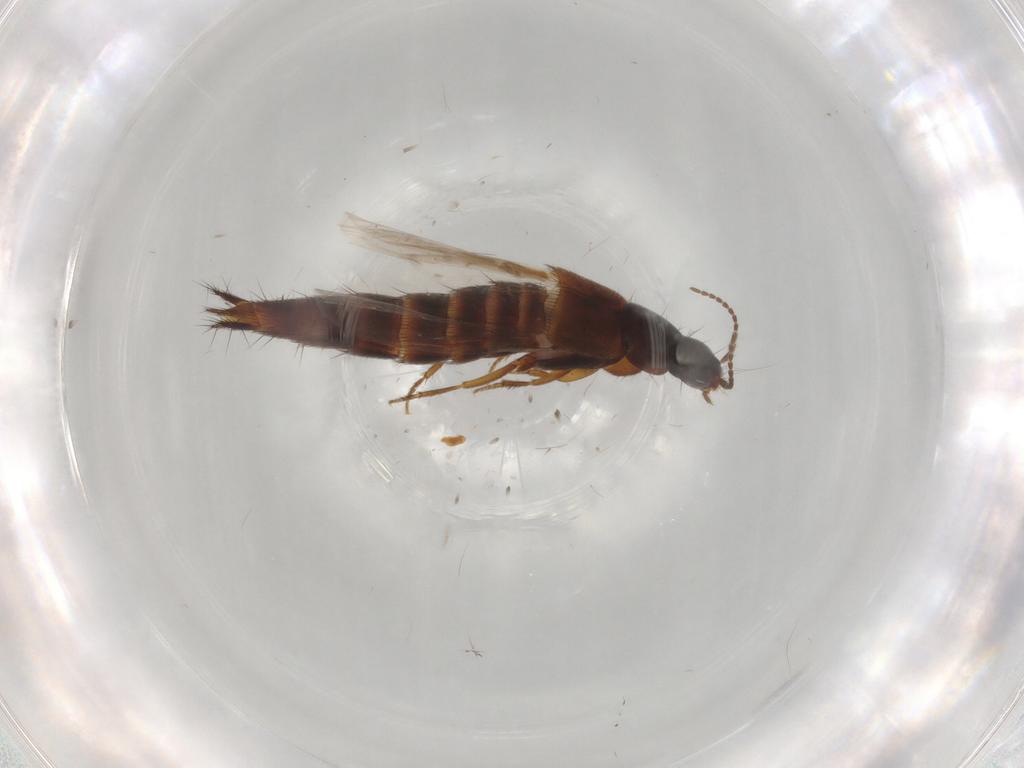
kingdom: Animalia
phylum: Arthropoda
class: Insecta
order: Coleoptera
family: Staphylinidae
